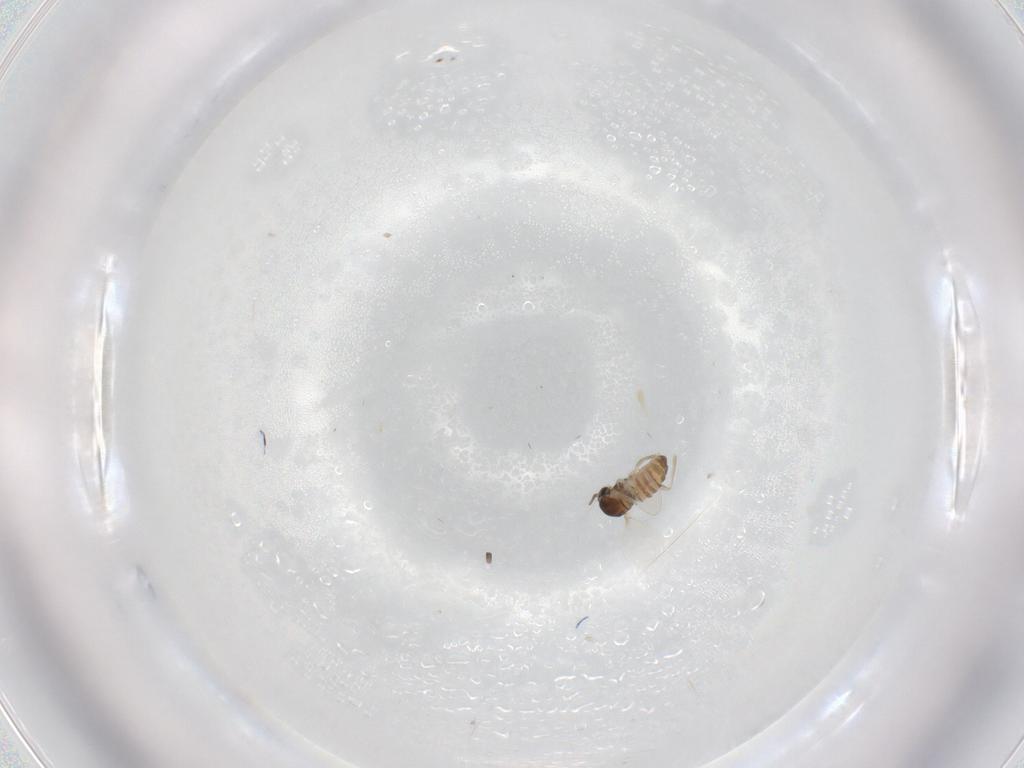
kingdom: Animalia
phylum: Arthropoda
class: Insecta
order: Diptera
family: Cecidomyiidae
